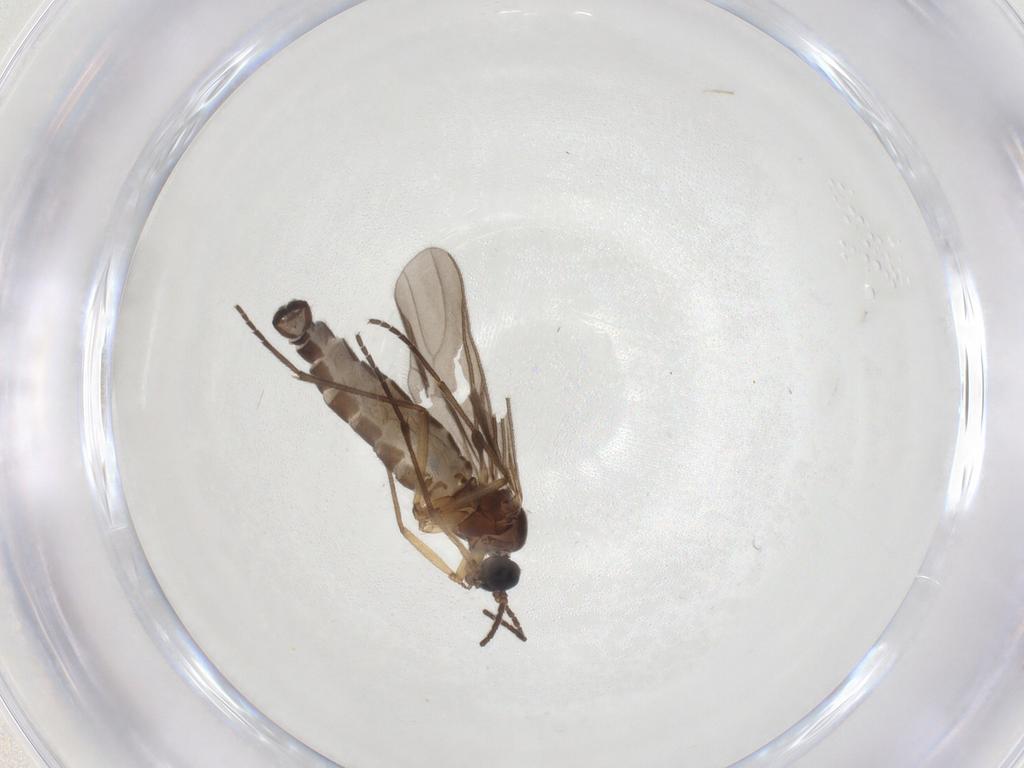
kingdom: Animalia
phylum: Arthropoda
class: Insecta
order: Diptera
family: Sciaridae
